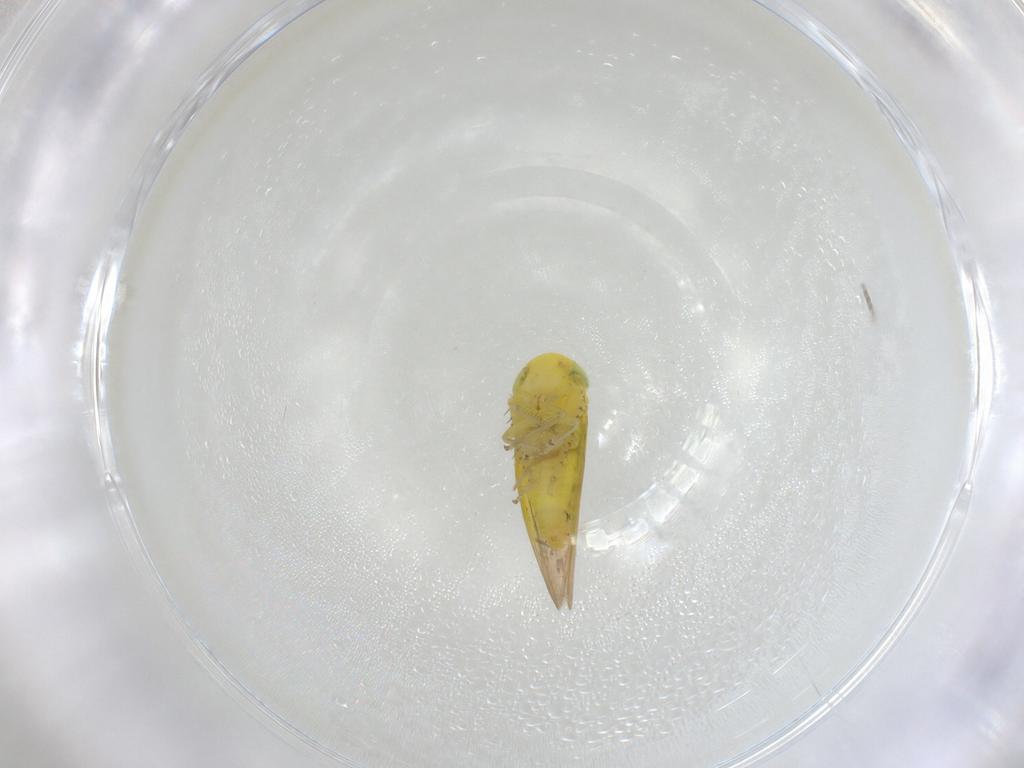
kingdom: Animalia
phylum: Arthropoda
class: Insecta
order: Hemiptera
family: Cicadellidae
